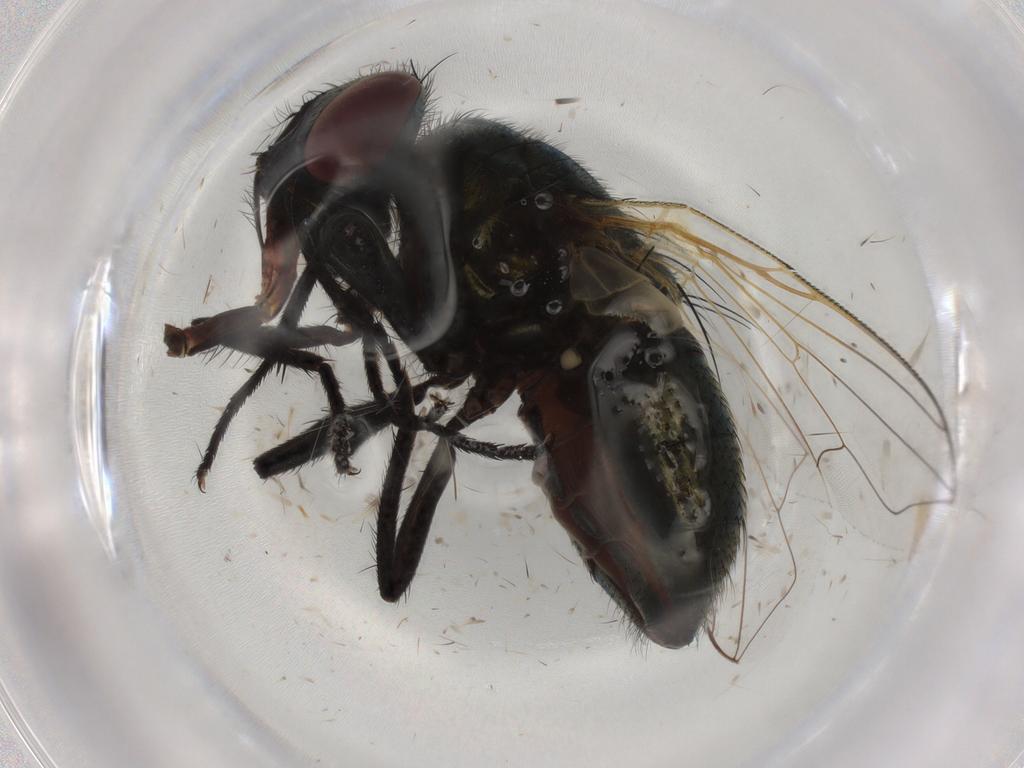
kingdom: Animalia
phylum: Arthropoda
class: Insecta
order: Diptera
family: Muscidae
